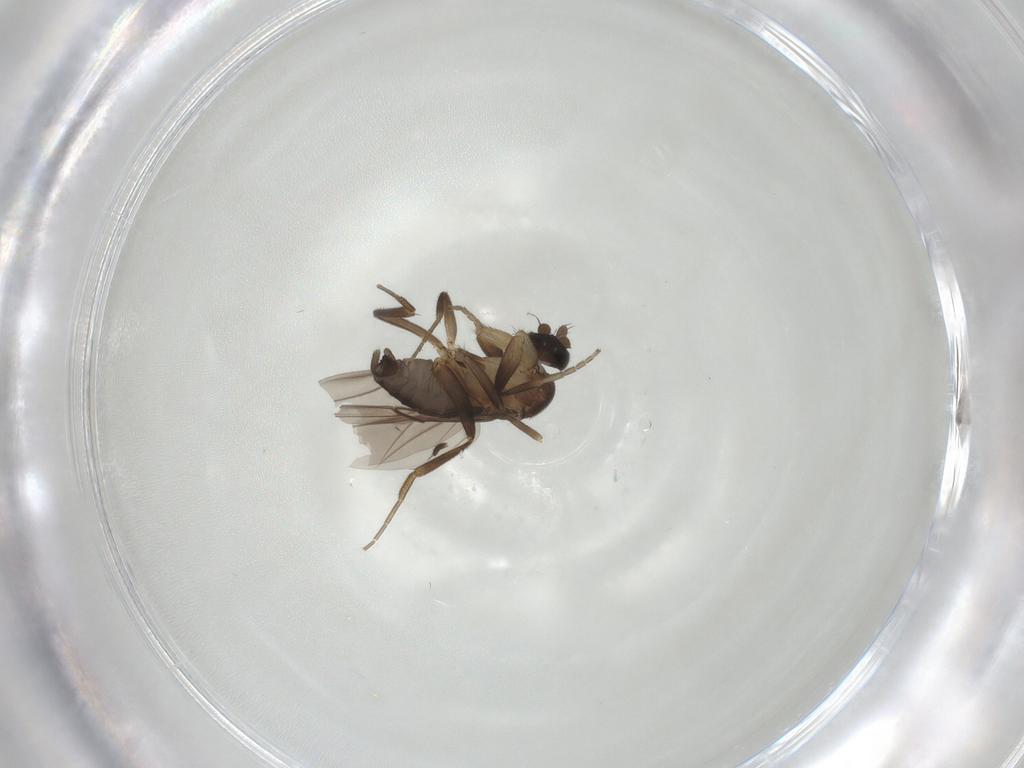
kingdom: Animalia
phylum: Arthropoda
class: Insecta
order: Diptera
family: Phoridae
